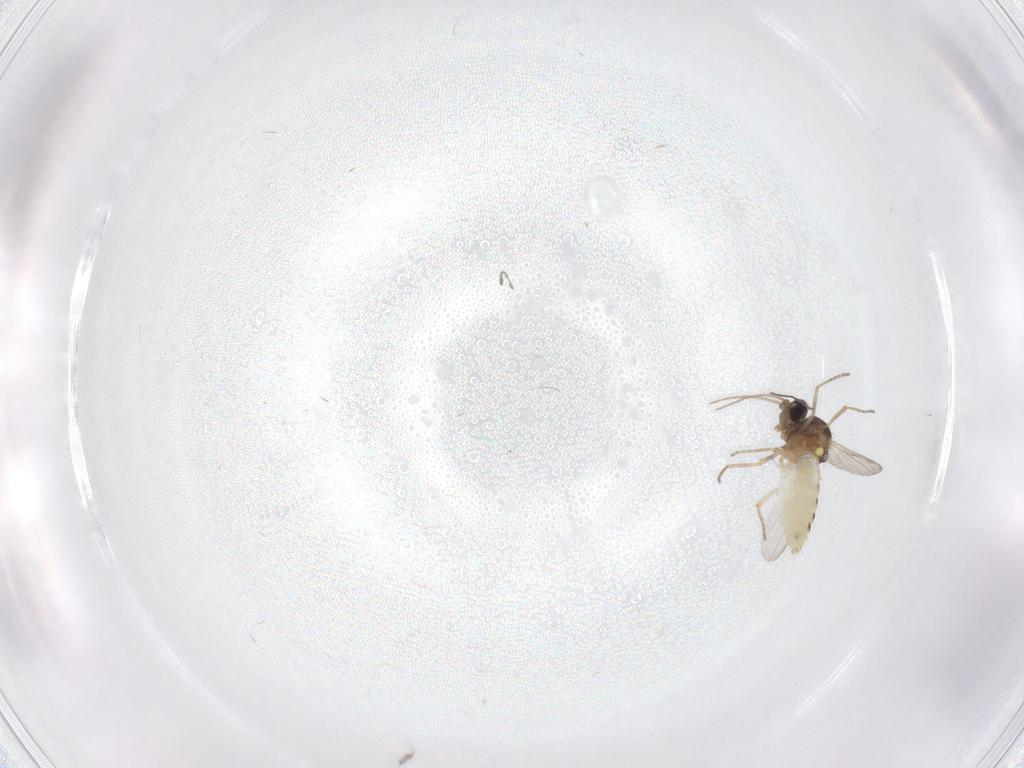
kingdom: Animalia
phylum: Arthropoda
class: Insecta
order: Diptera
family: Ceratopogonidae
